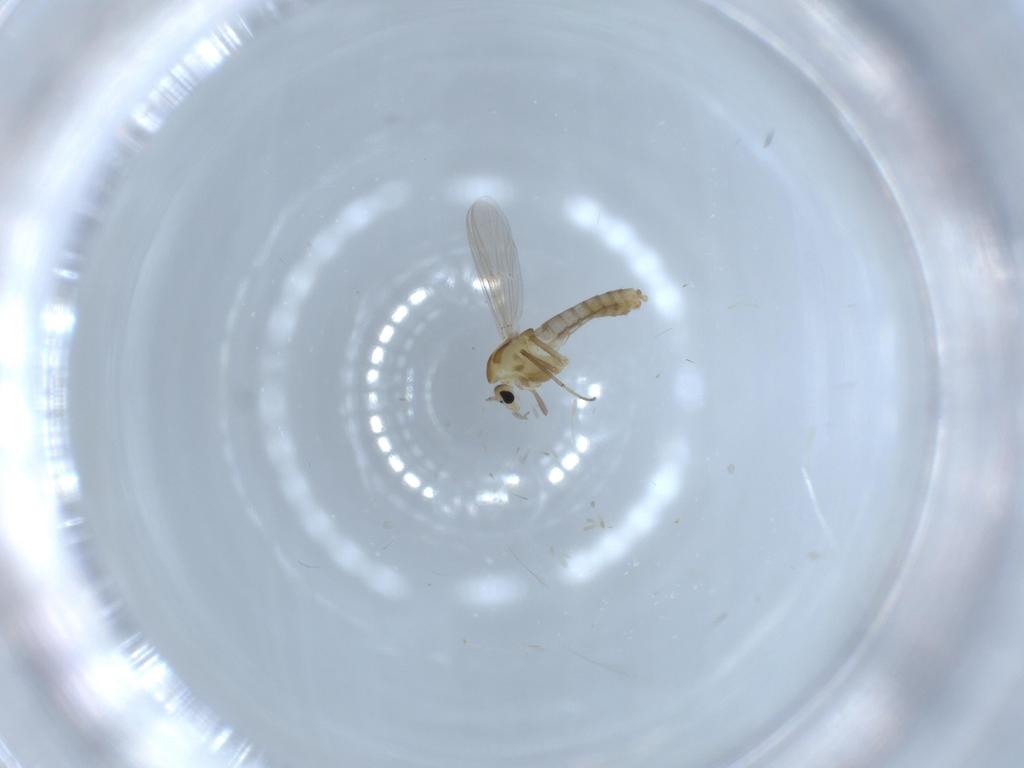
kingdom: Animalia
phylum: Arthropoda
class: Insecta
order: Diptera
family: Chironomidae
